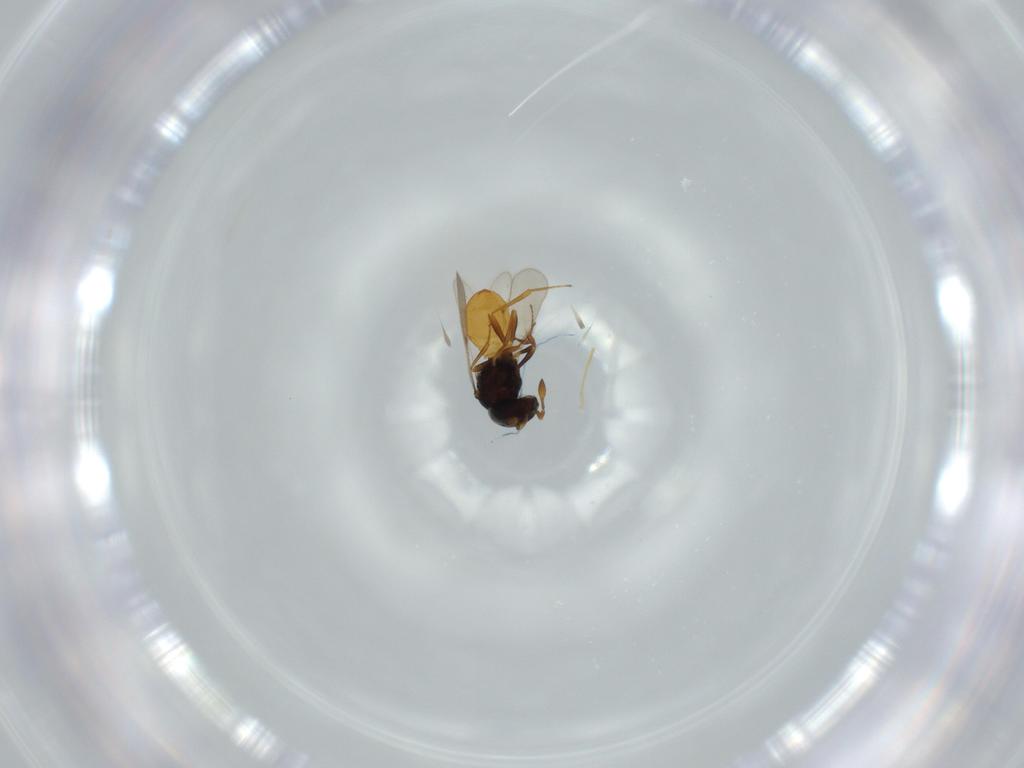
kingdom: Animalia
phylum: Arthropoda
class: Insecta
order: Hymenoptera
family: Scelionidae
